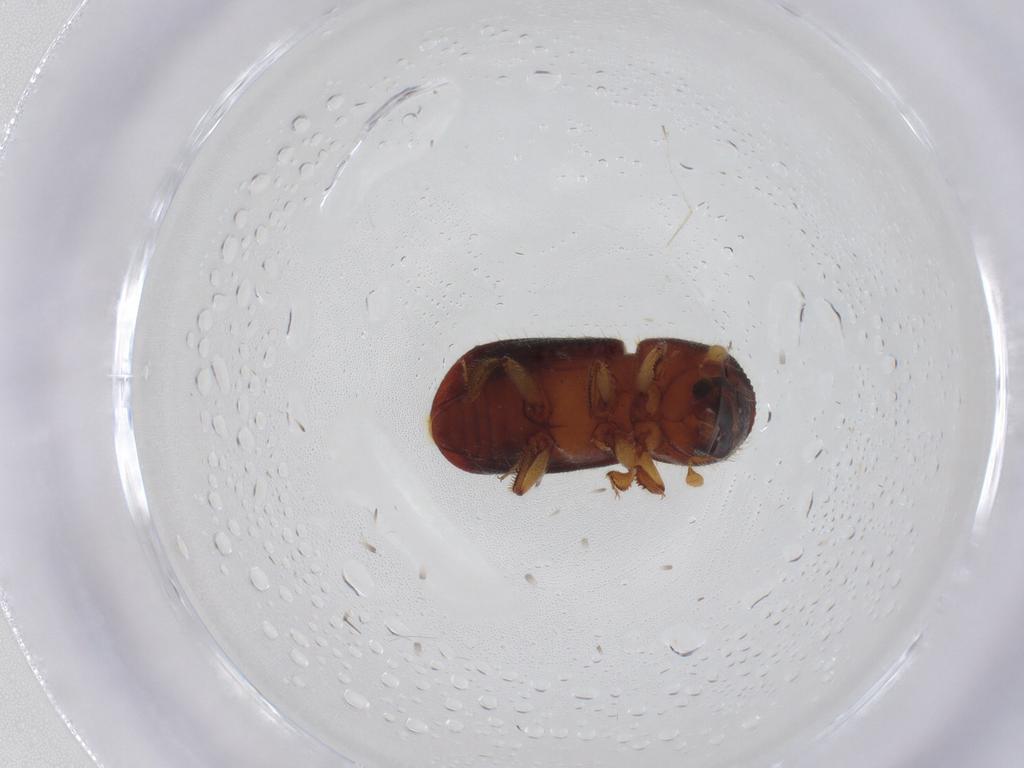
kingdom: Animalia
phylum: Arthropoda
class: Insecta
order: Coleoptera
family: Curculionidae
